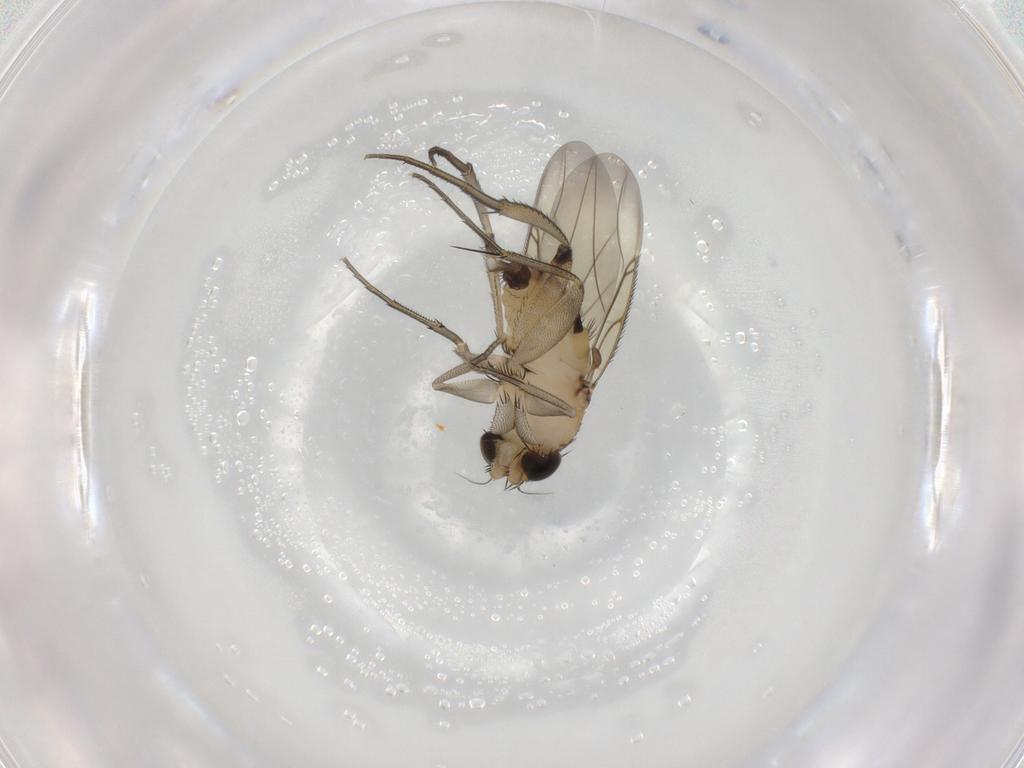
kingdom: Animalia
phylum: Arthropoda
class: Insecta
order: Diptera
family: Phoridae
